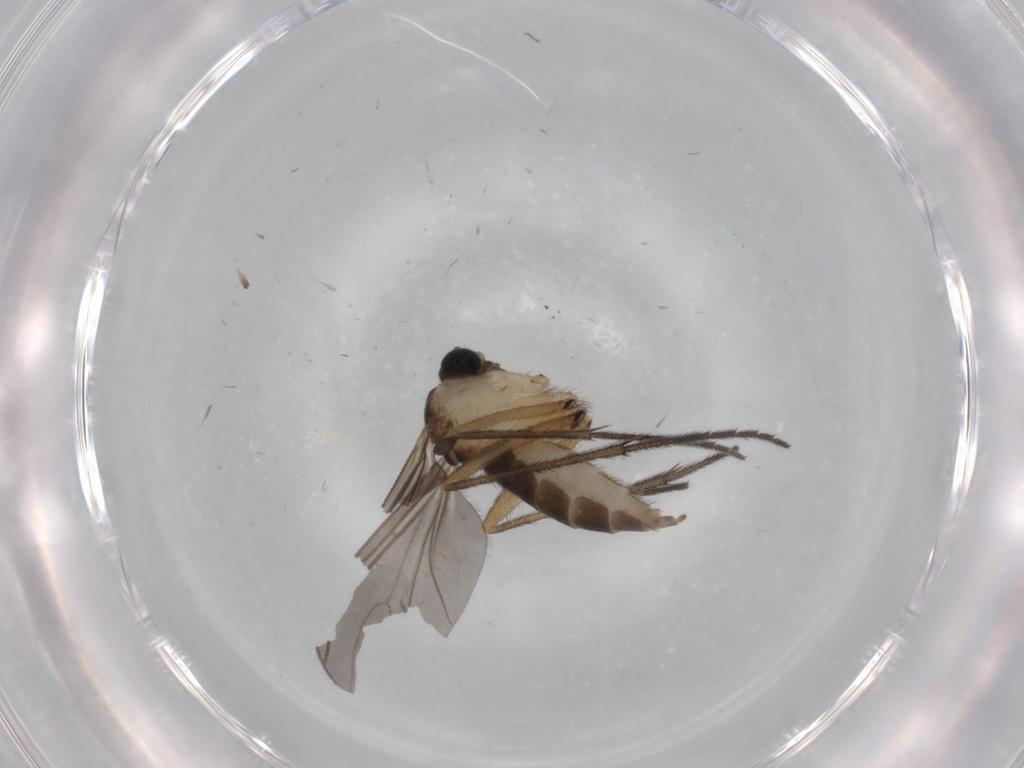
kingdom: Animalia
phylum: Arthropoda
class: Insecta
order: Diptera
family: Sciaridae
